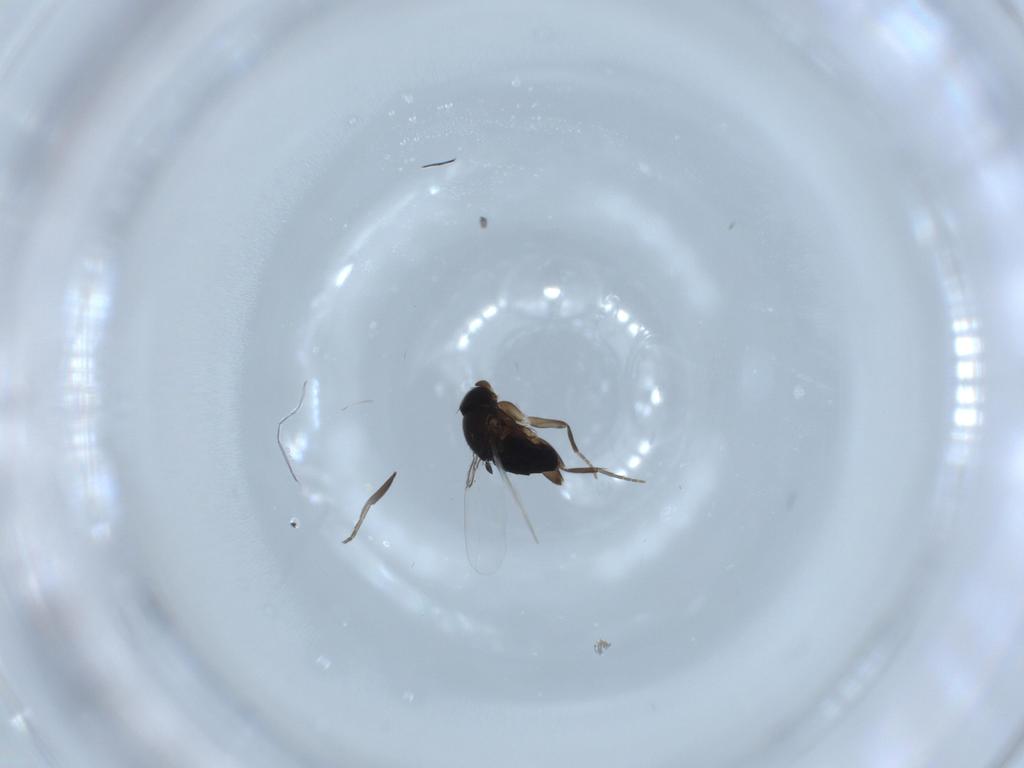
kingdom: Animalia
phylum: Arthropoda
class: Insecta
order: Diptera
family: Phoridae
